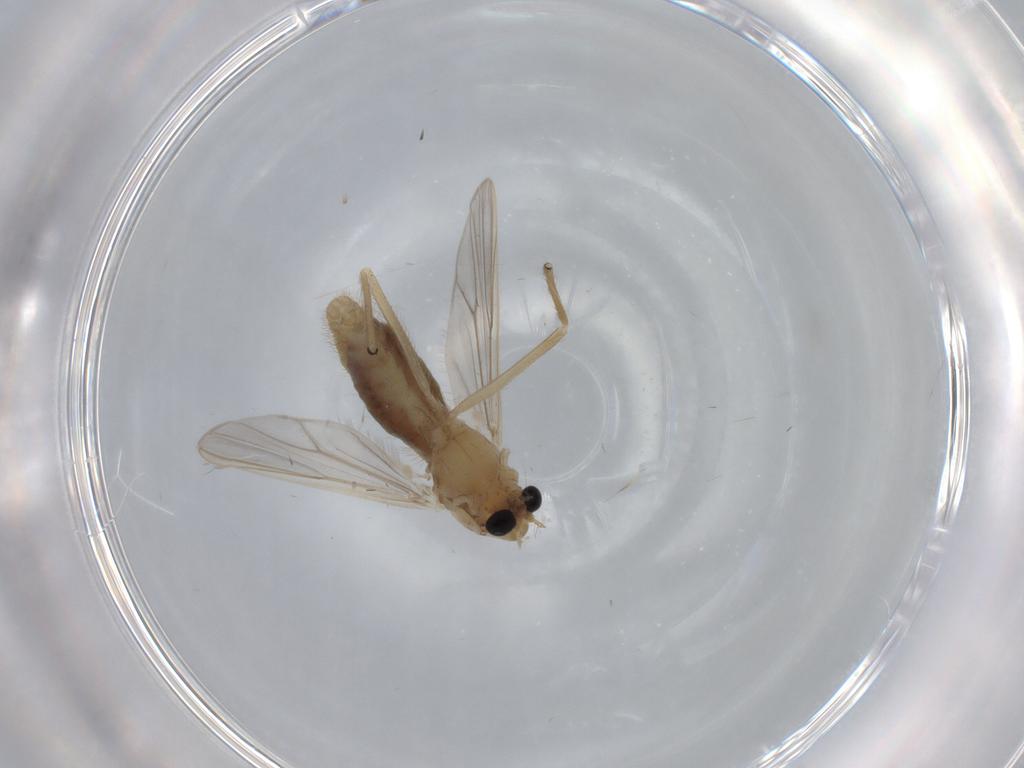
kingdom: Animalia
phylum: Arthropoda
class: Insecta
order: Diptera
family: Chironomidae
